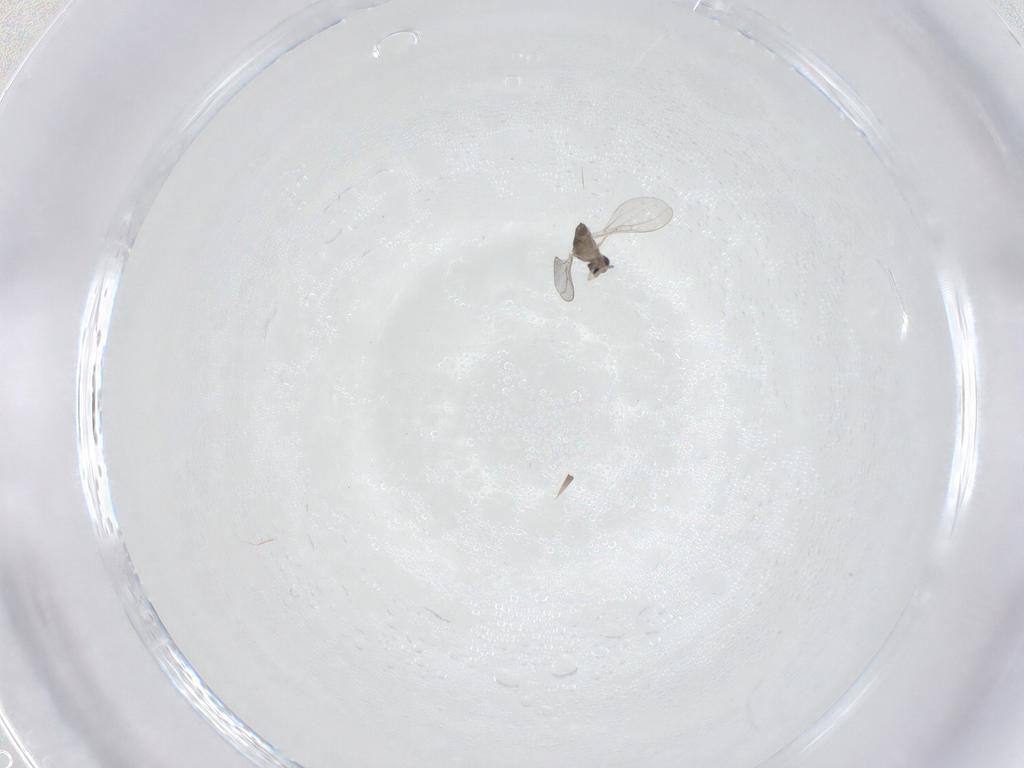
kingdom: Animalia
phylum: Arthropoda
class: Insecta
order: Diptera
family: Cecidomyiidae
